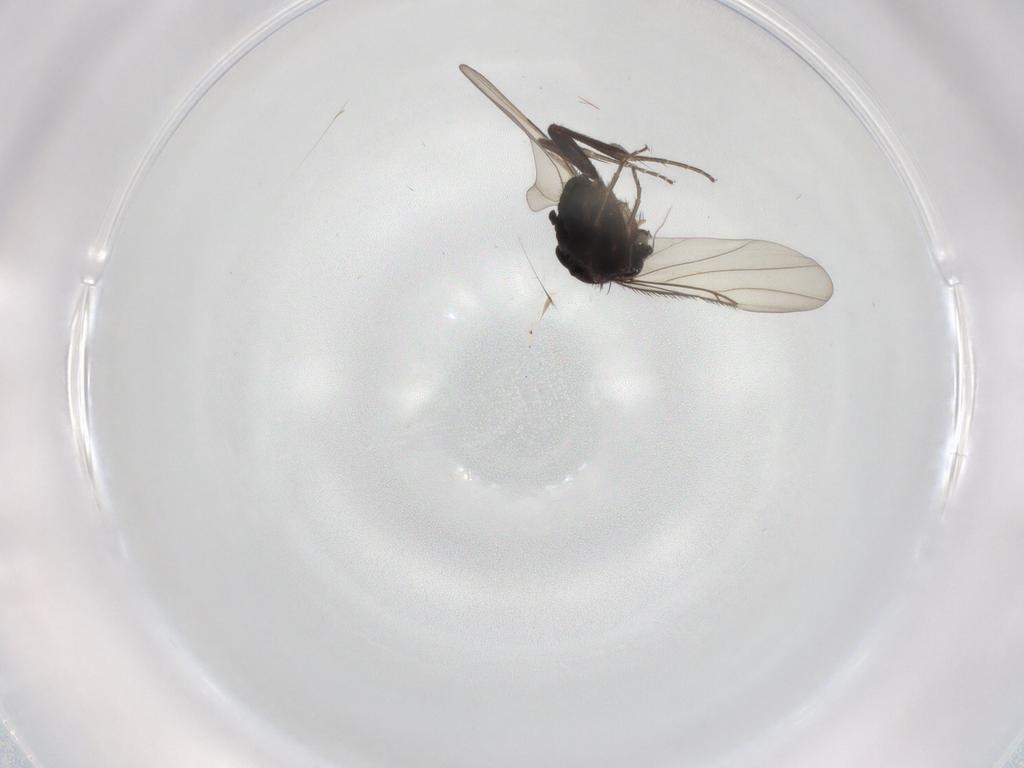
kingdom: Animalia
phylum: Arthropoda
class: Insecta
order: Diptera
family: Phoridae
